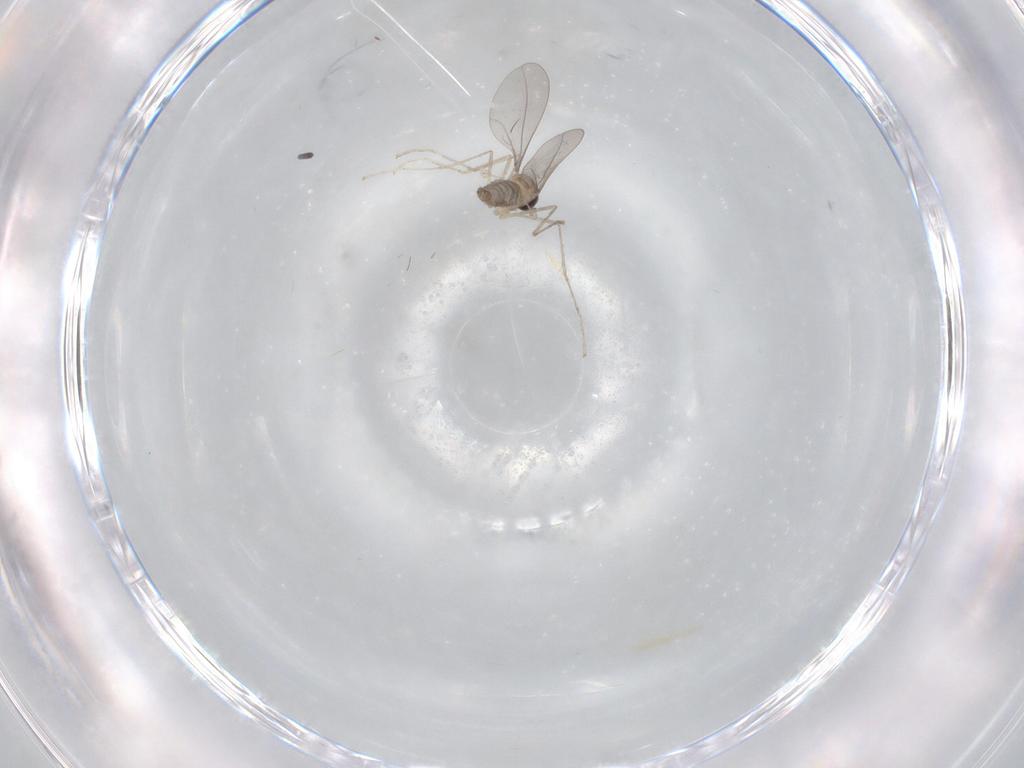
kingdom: Animalia
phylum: Arthropoda
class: Insecta
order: Diptera
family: Cecidomyiidae
